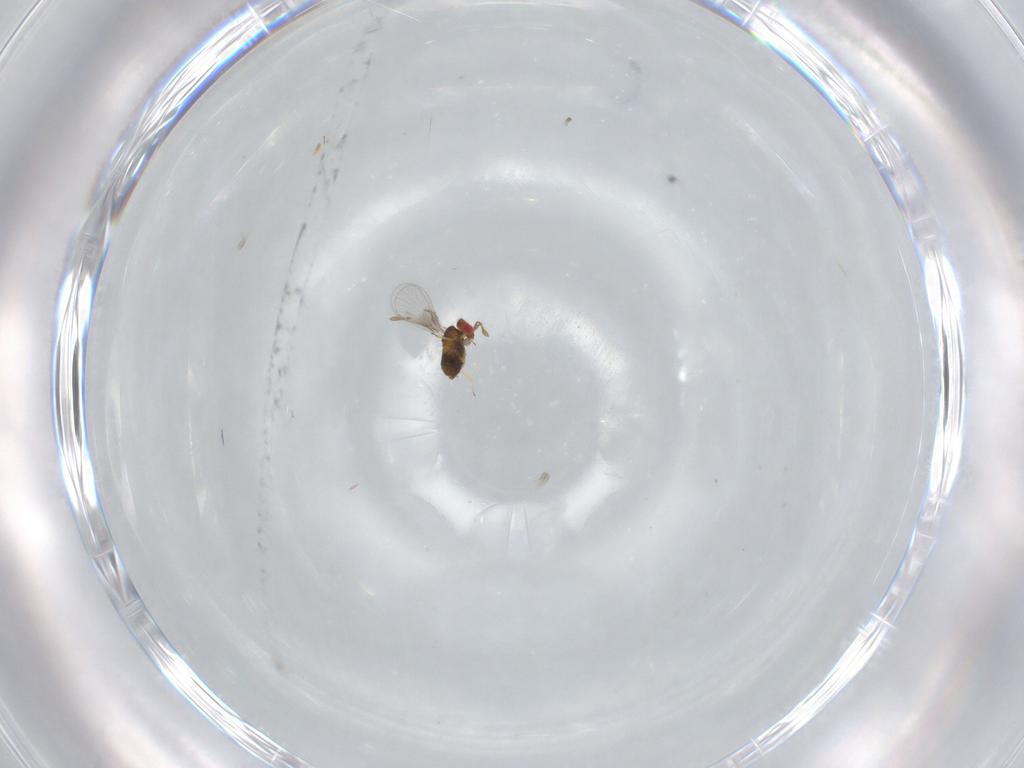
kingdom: Animalia
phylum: Arthropoda
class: Insecta
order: Hymenoptera
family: Trichogrammatidae
